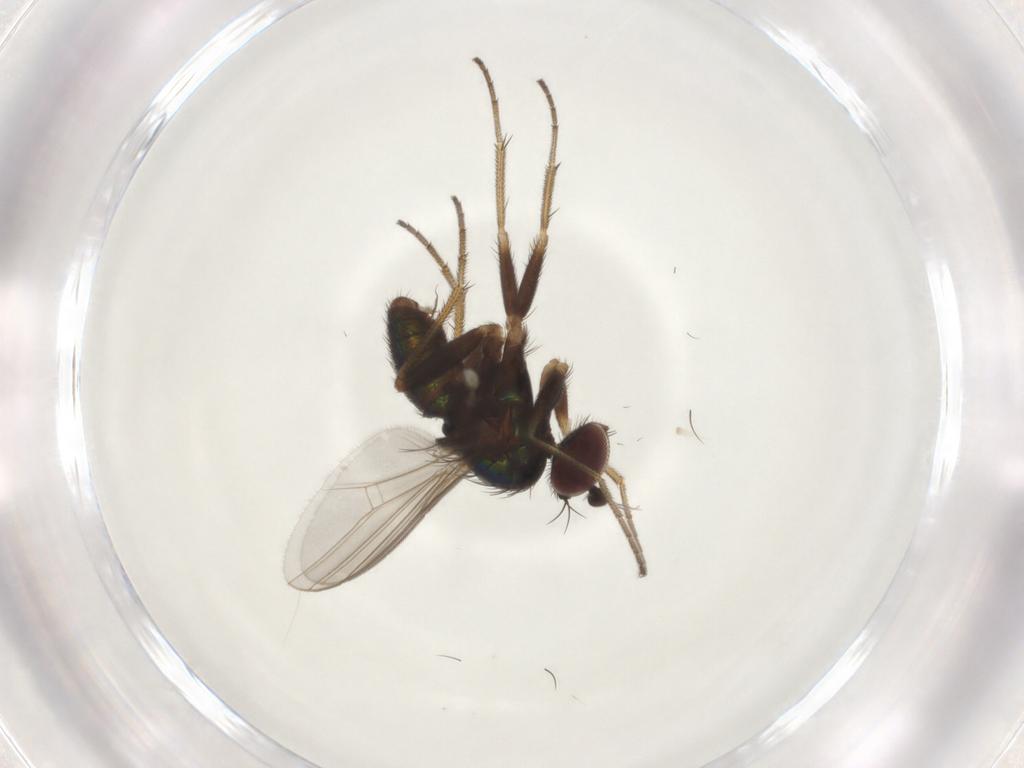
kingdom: Animalia
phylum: Arthropoda
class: Insecta
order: Diptera
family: Dolichopodidae
